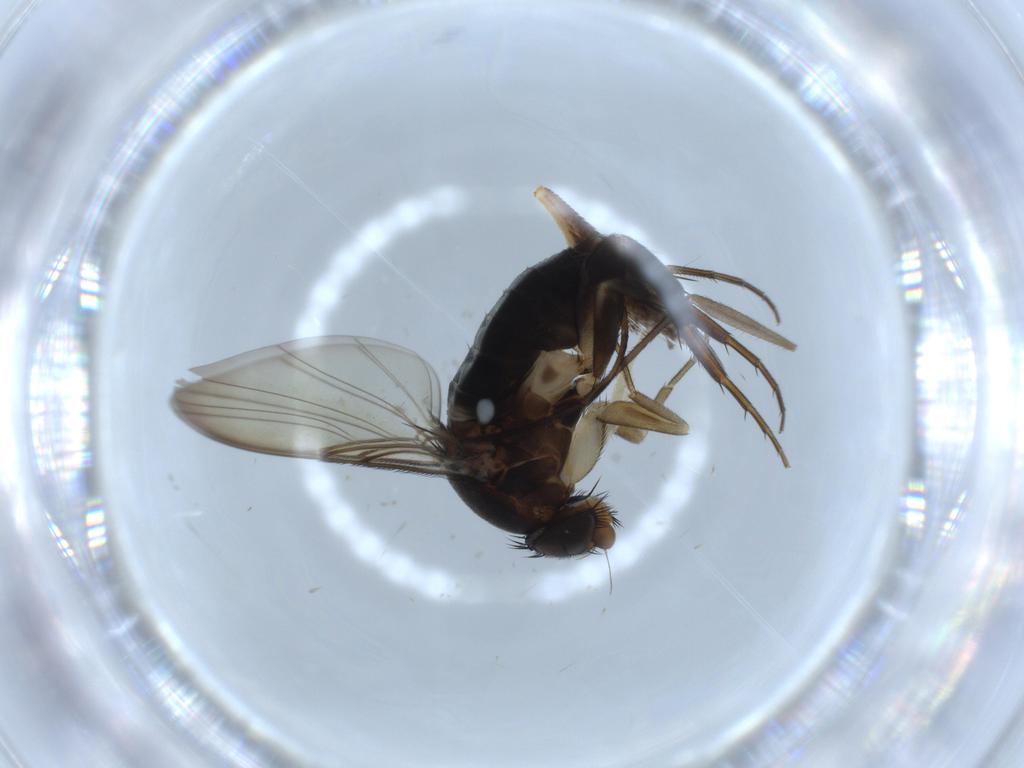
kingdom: Animalia
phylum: Arthropoda
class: Insecta
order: Diptera
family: Phoridae
